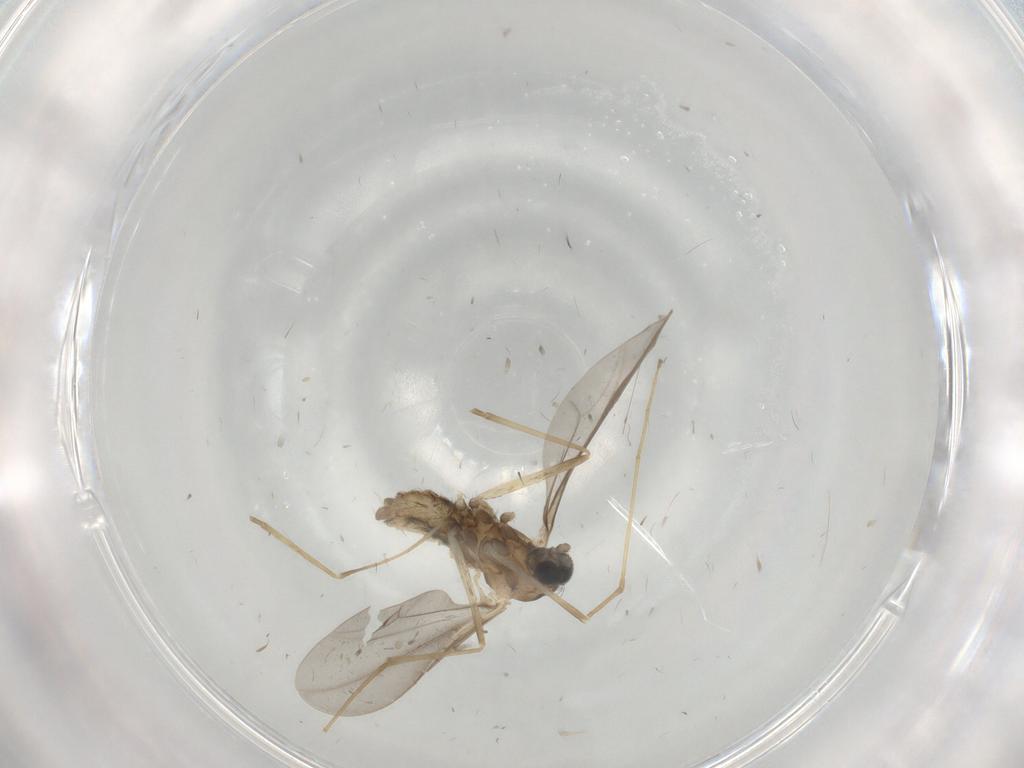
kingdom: Animalia
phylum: Arthropoda
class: Insecta
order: Diptera
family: Cecidomyiidae
